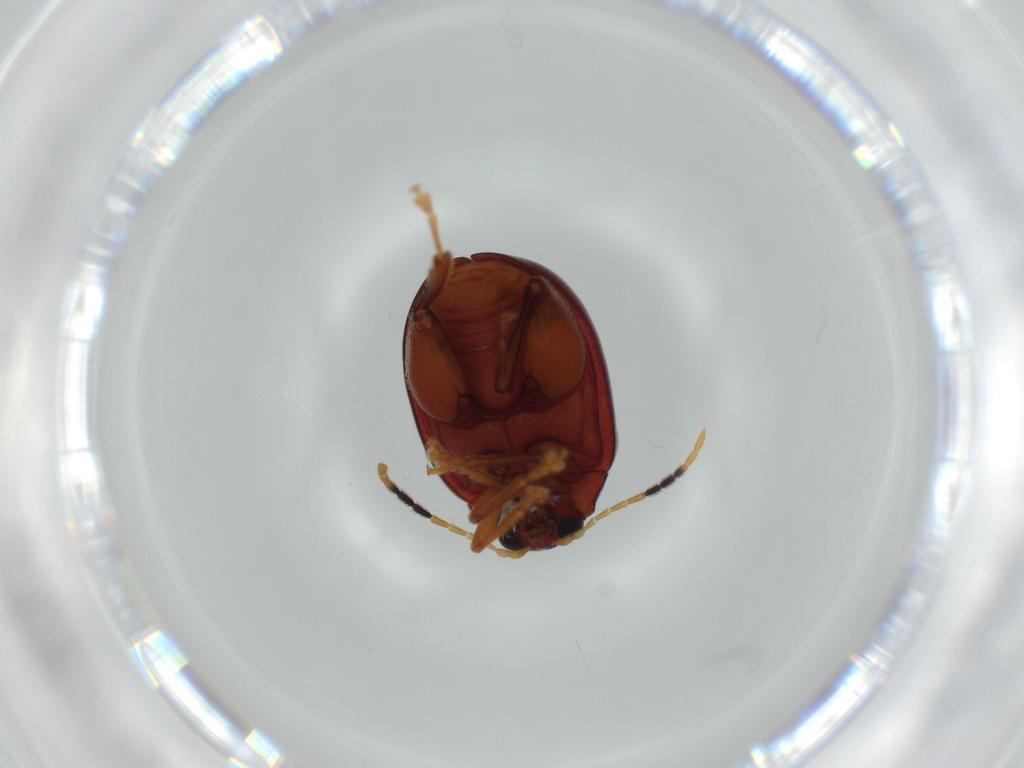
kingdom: Animalia
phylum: Arthropoda
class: Insecta
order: Coleoptera
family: Chrysomelidae
